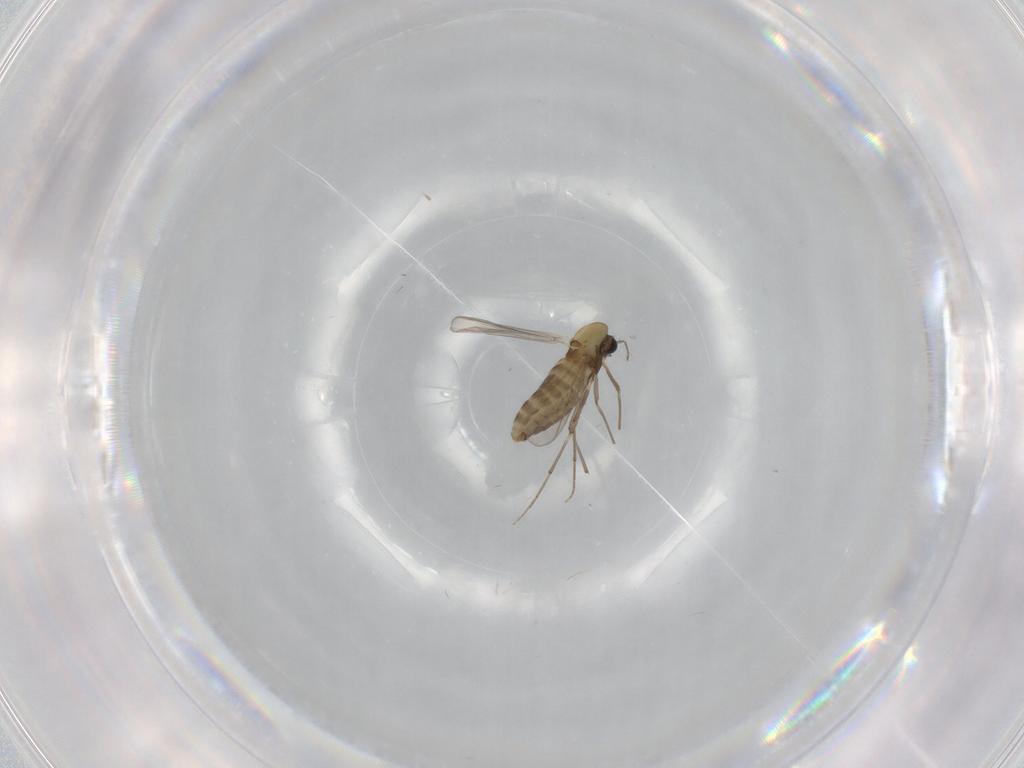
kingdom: Animalia
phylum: Arthropoda
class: Insecta
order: Diptera
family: Chironomidae
